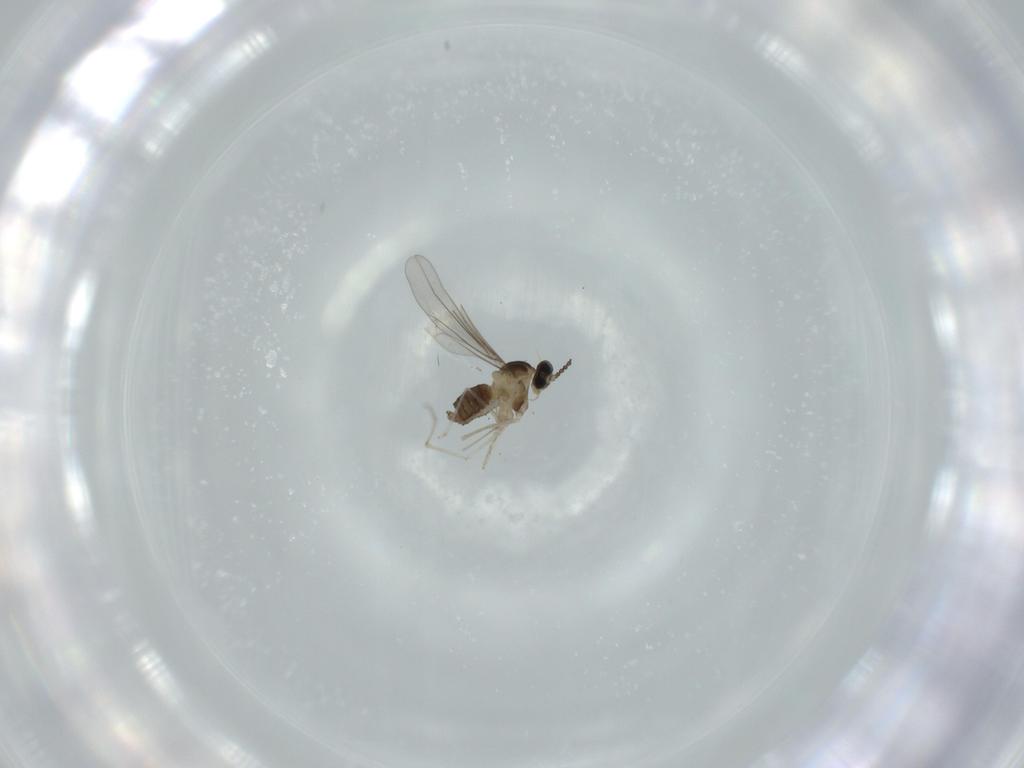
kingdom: Animalia
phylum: Arthropoda
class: Insecta
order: Diptera
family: Cecidomyiidae
